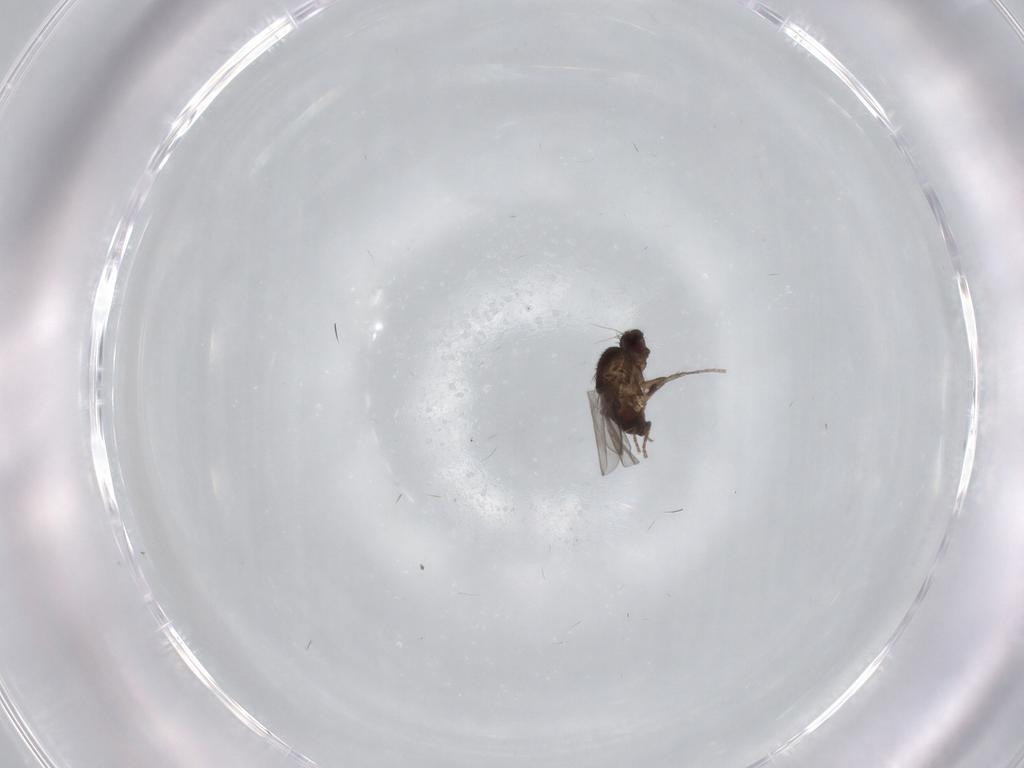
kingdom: Animalia
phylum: Arthropoda
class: Insecta
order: Diptera
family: Sphaeroceridae
